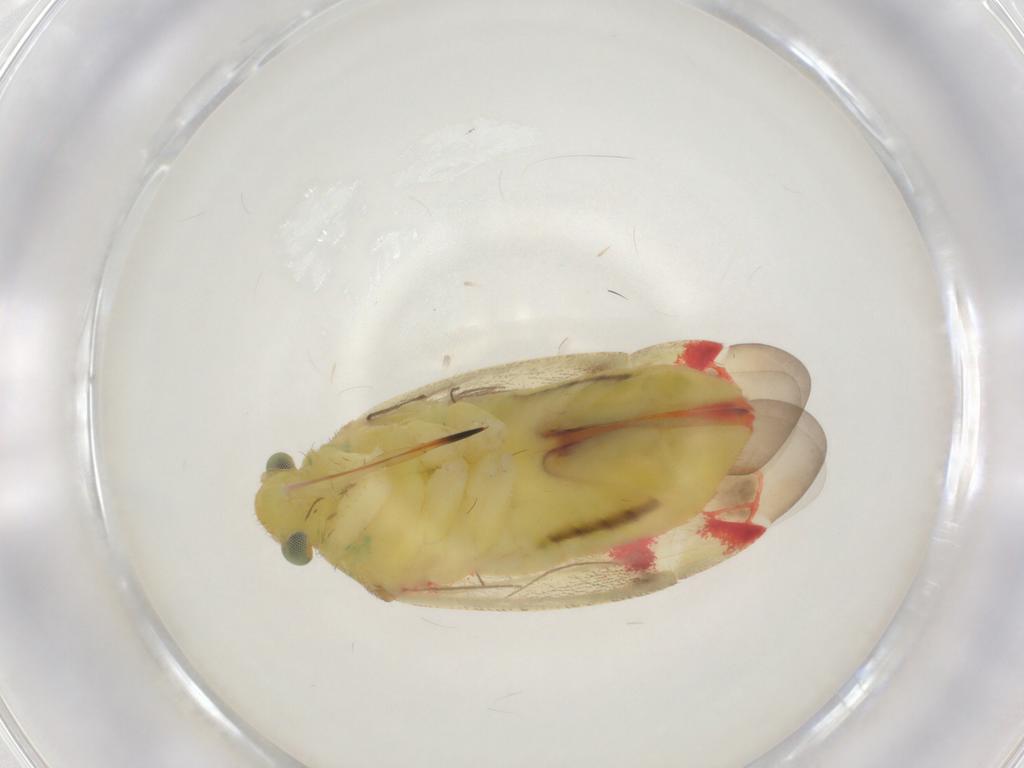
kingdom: Animalia
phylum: Arthropoda
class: Insecta
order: Hemiptera
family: Miridae
